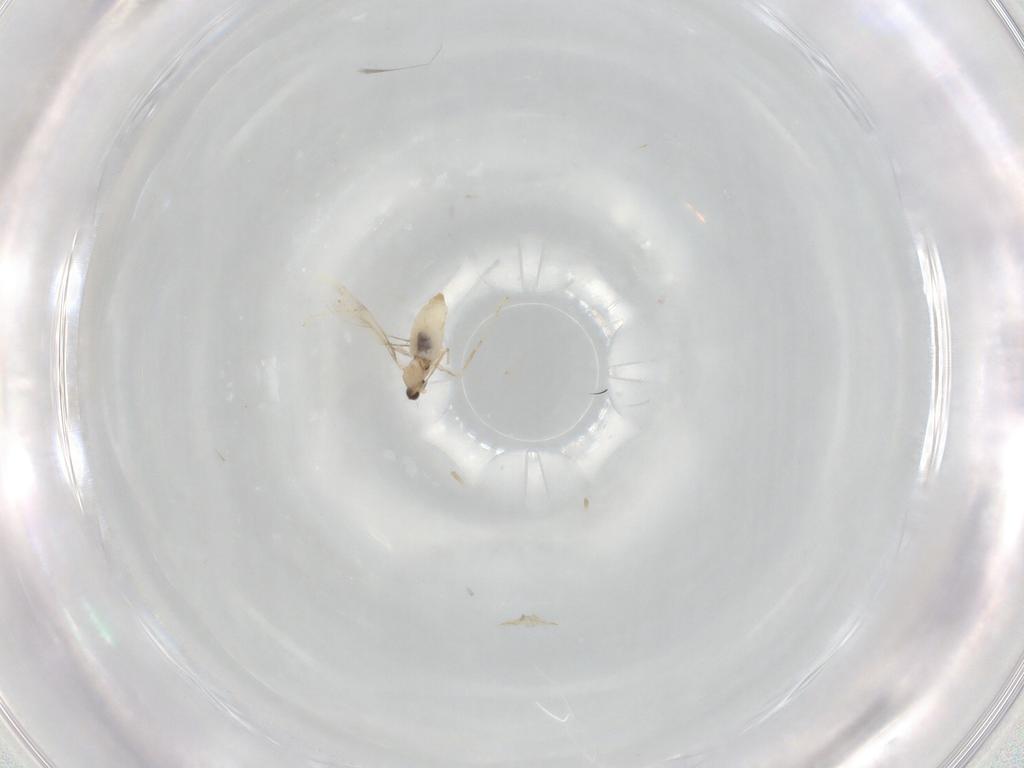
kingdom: Animalia
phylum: Arthropoda
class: Insecta
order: Diptera
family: Cecidomyiidae
